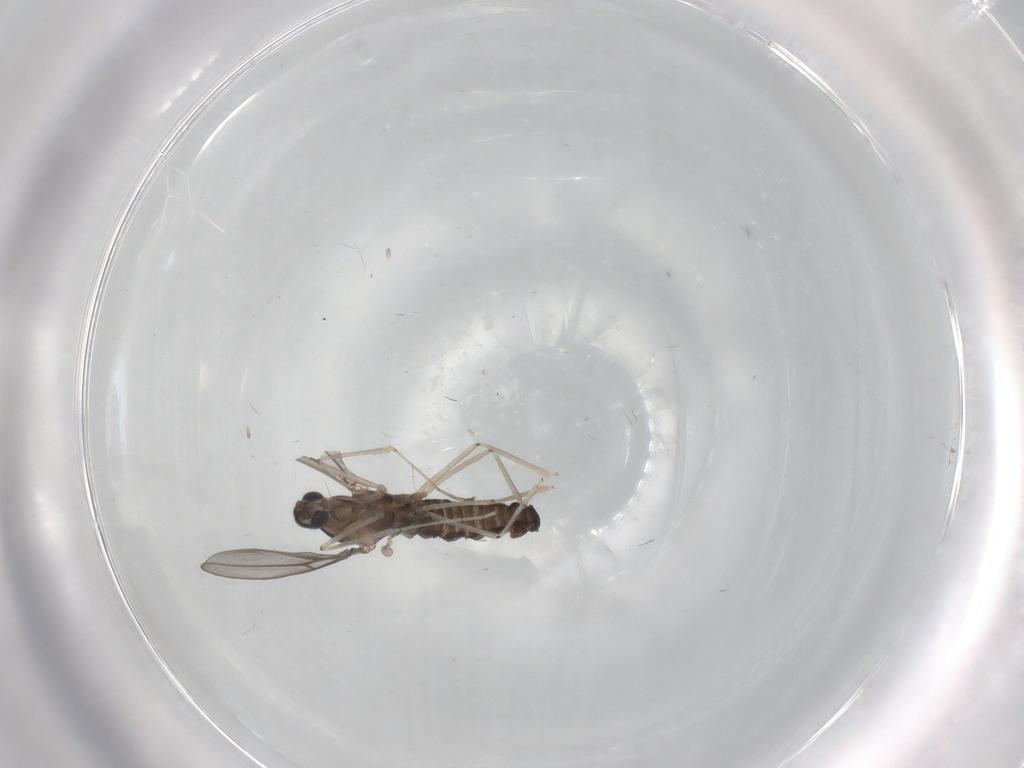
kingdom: Animalia
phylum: Arthropoda
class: Insecta
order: Diptera
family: Cecidomyiidae
